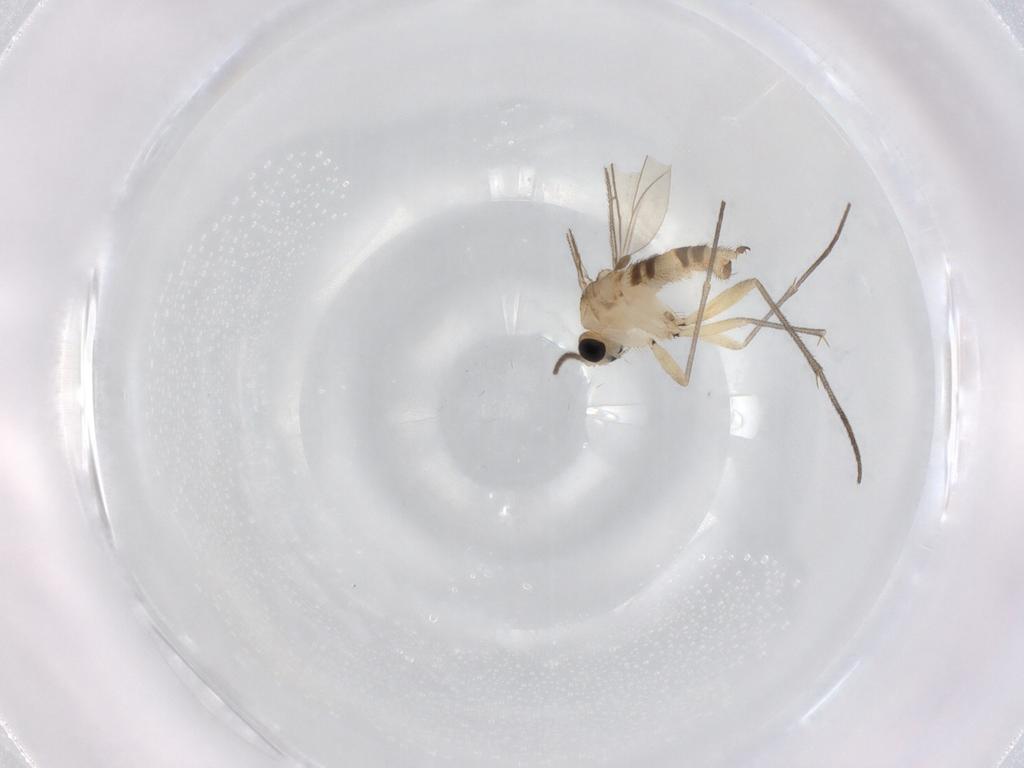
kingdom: Animalia
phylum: Arthropoda
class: Insecta
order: Diptera
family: Sciaridae
